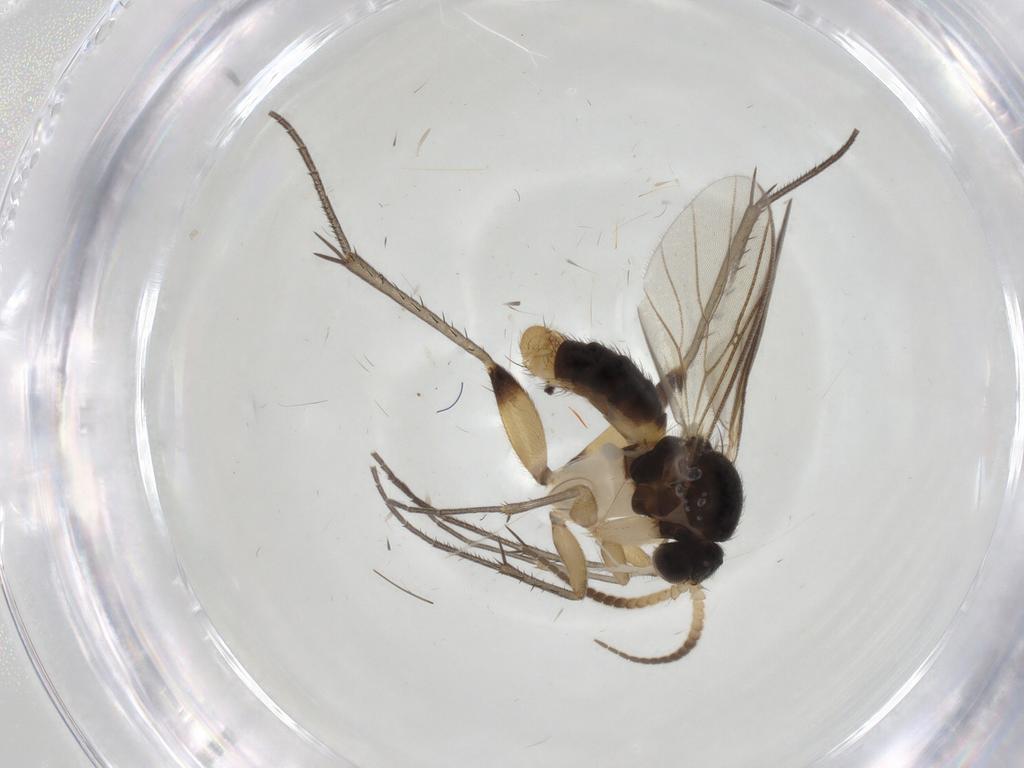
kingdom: Animalia
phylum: Arthropoda
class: Insecta
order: Diptera
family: Mycetophilidae
